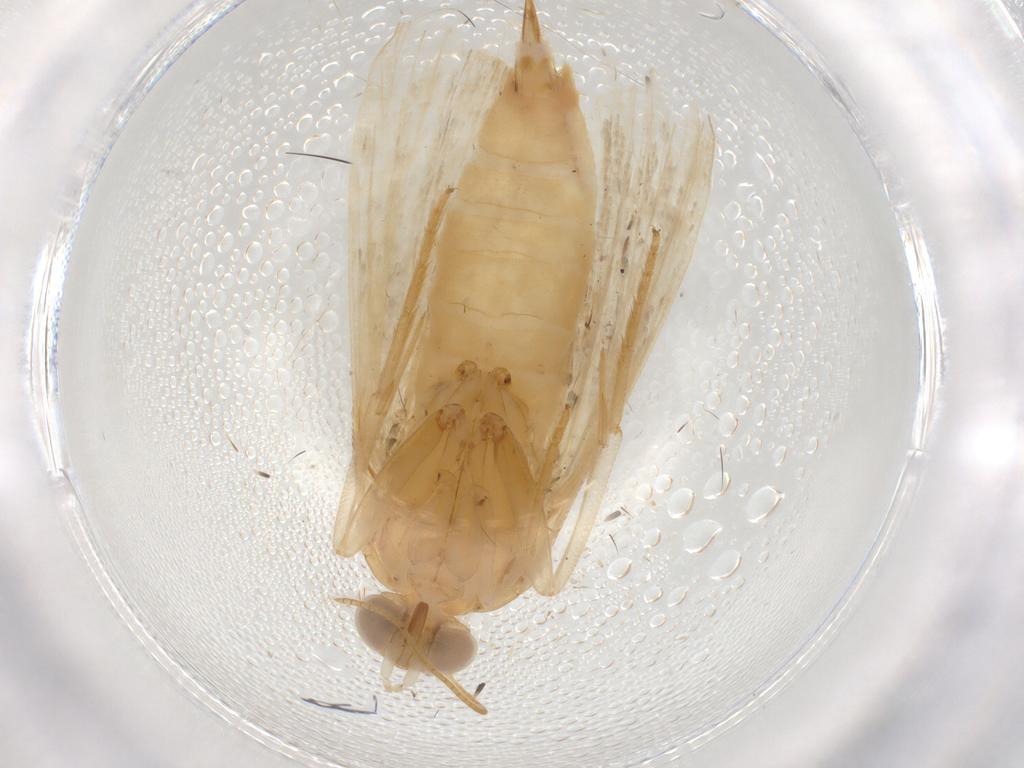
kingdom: Animalia
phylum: Arthropoda
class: Insecta
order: Lepidoptera
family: Noctuidae
